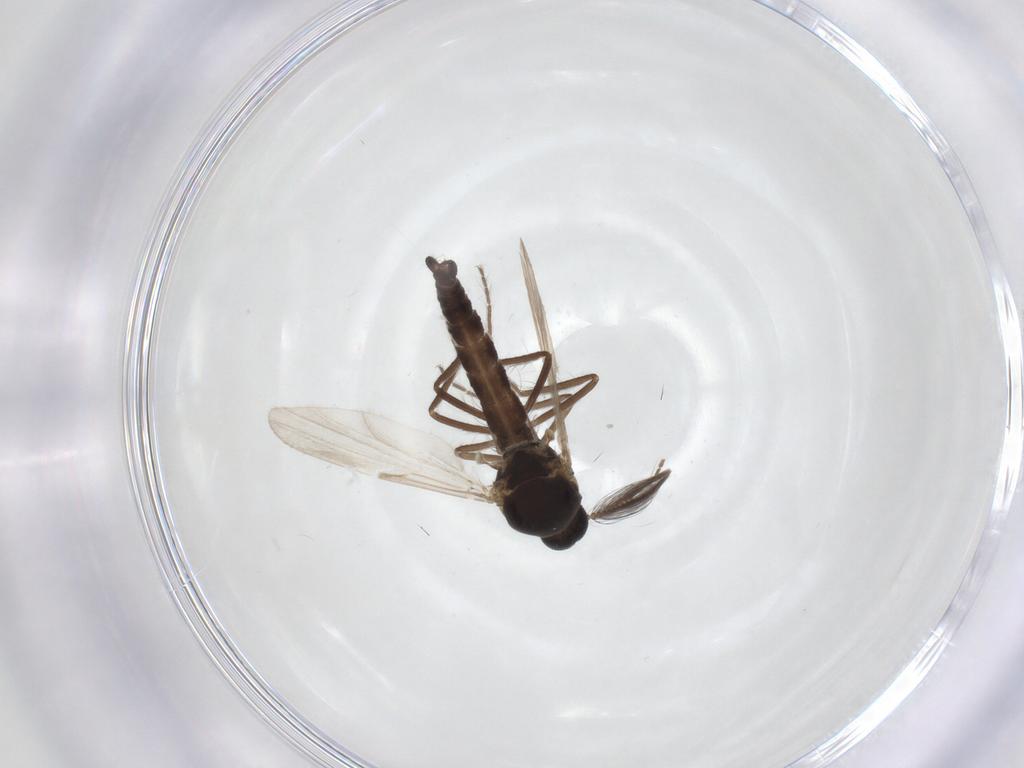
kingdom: Animalia
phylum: Arthropoda
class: Insecta
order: Diptera
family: Ceratopogonidae
